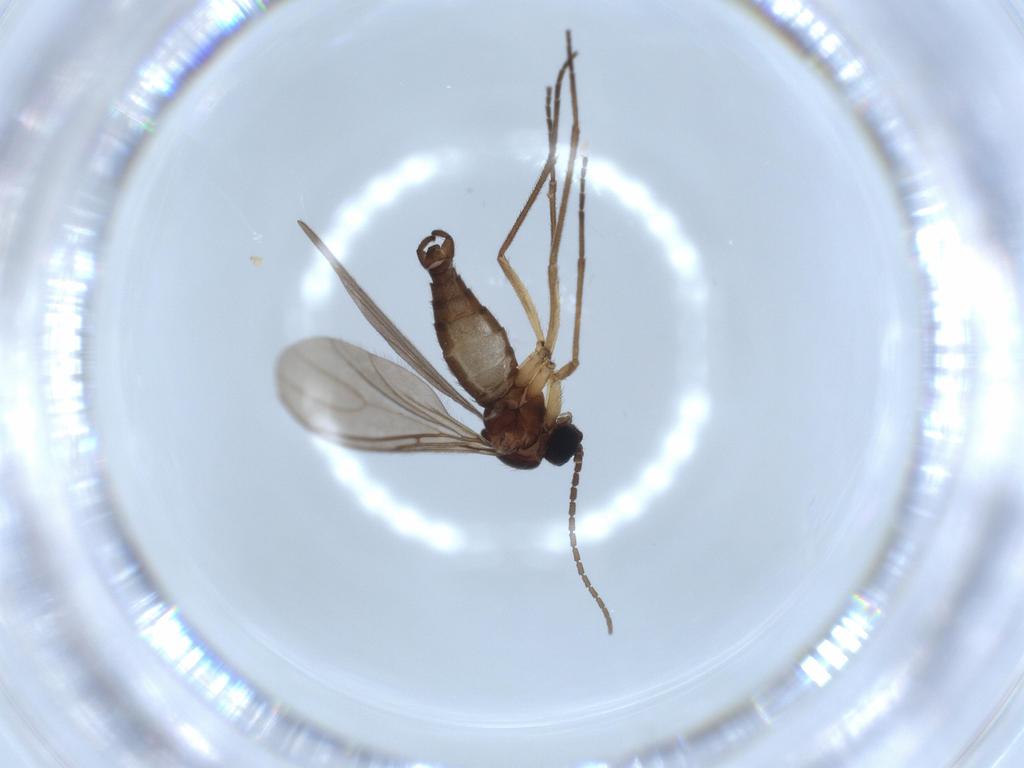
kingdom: Animalia
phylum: Arthropoda
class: Insecta
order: Diptera
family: Sciaridae
